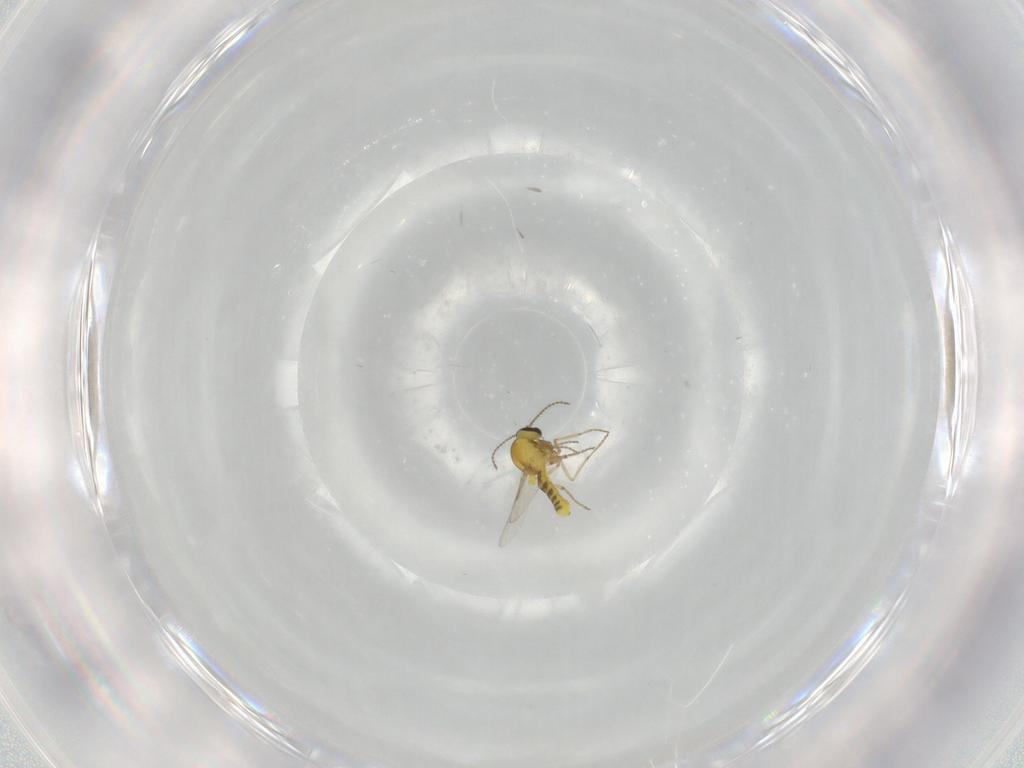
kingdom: Animalia
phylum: Arthropoda
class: Insecta
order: Diptera
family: Ceratopogonidae
